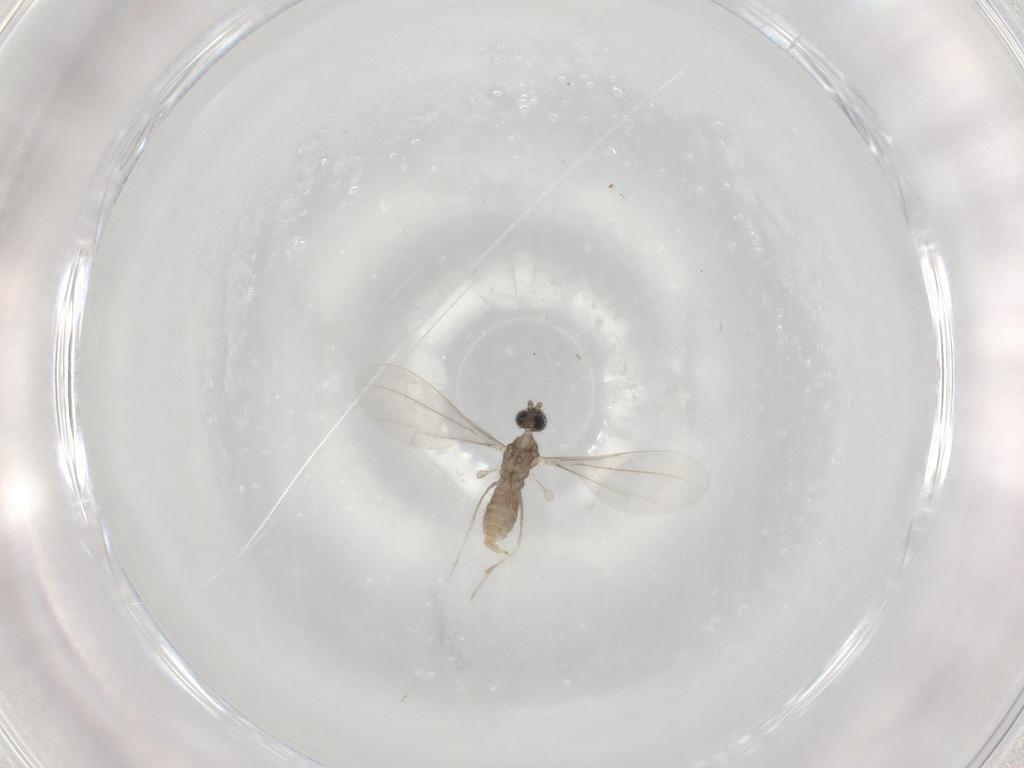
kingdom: Animalia
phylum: Arthropoda
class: Insecta
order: Diptera
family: Cecidomyiidae
